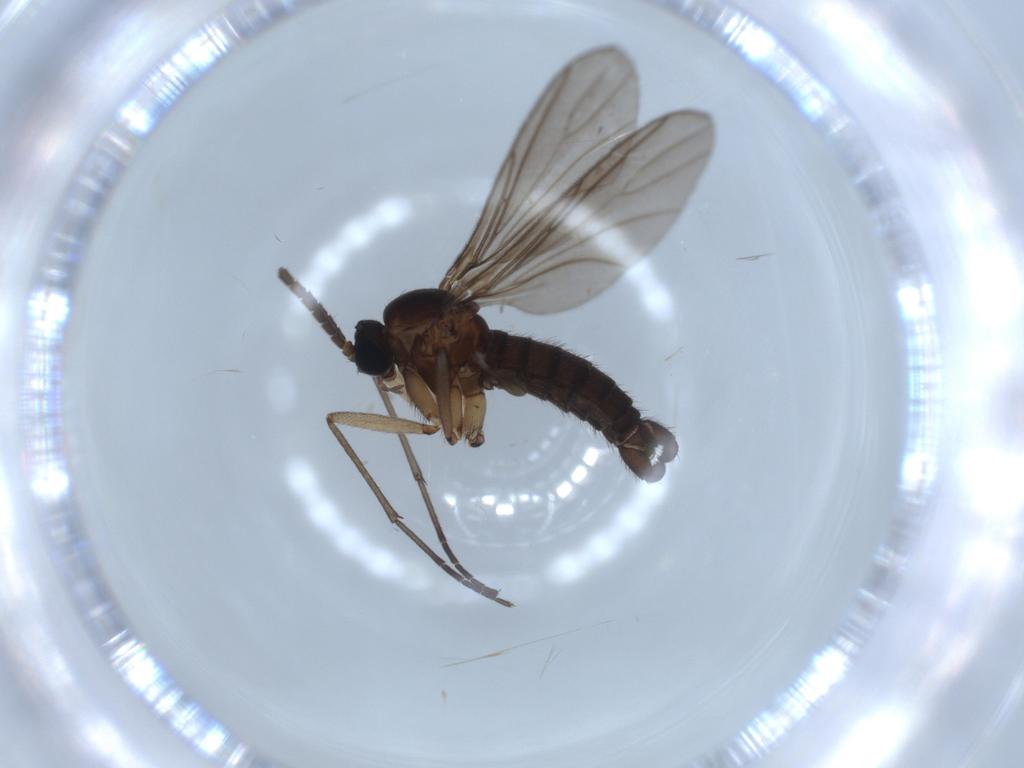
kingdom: Animalia
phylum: Arthropoda
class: Insecta
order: Diptera
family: Sciaridae
